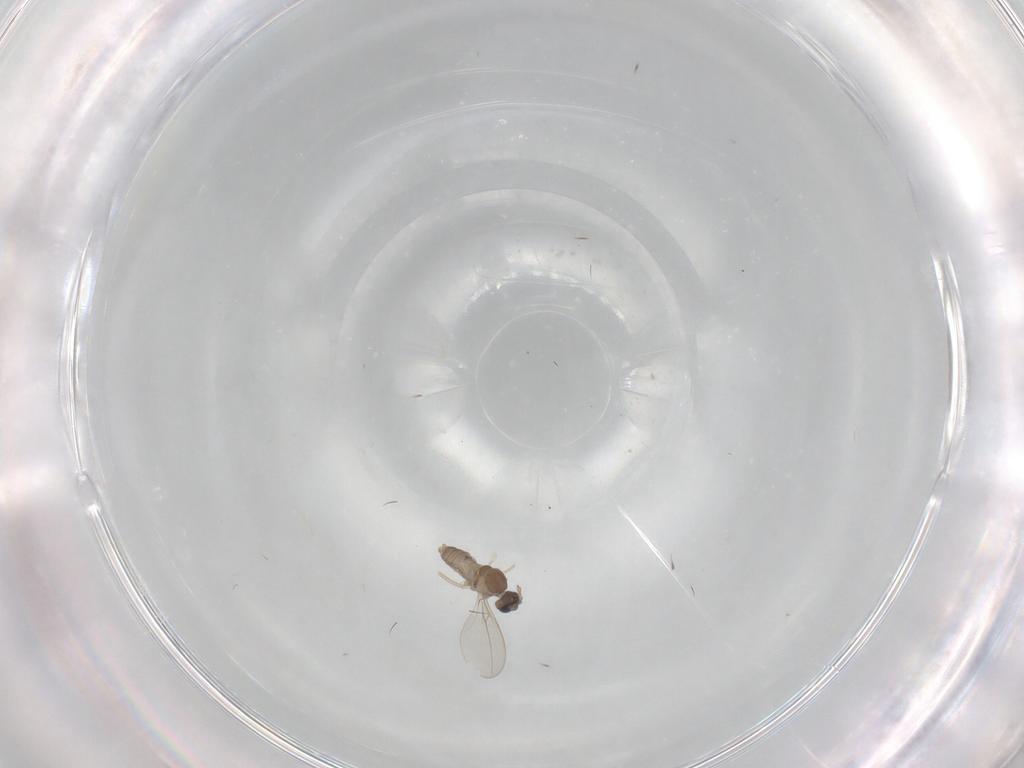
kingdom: Animalia
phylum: Arthropoda
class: Insecta
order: Diptera
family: Cecidomyiidae
